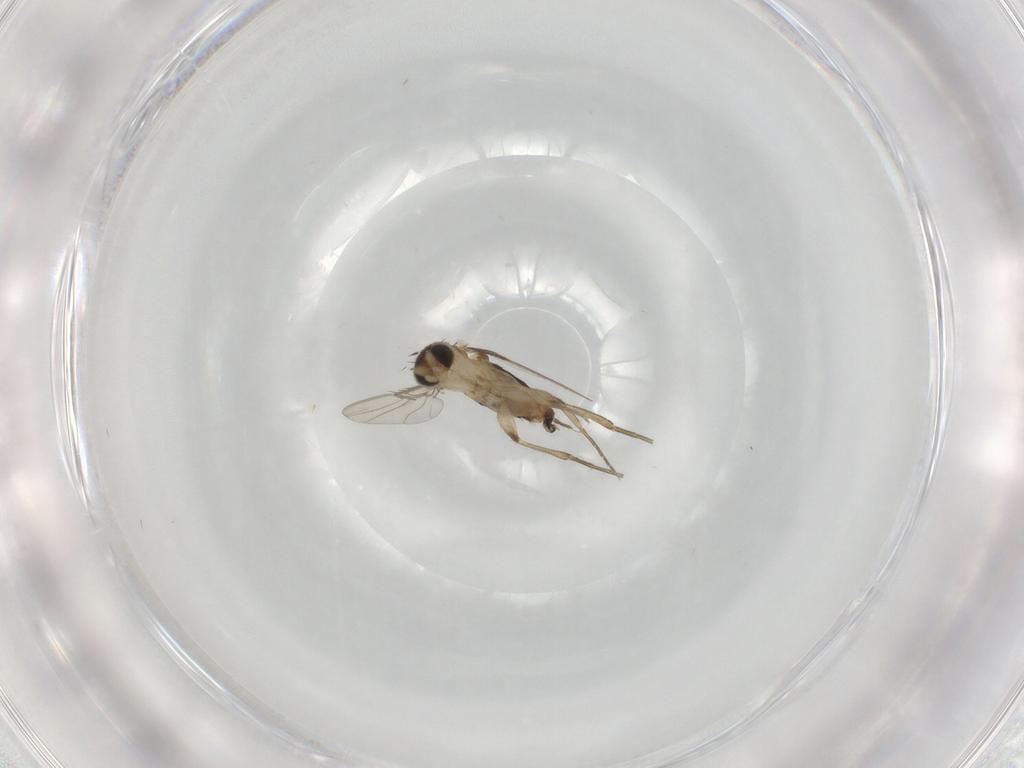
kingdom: Animalia
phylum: Arthropoda
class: Insecta
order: Diptera
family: Phoridae
